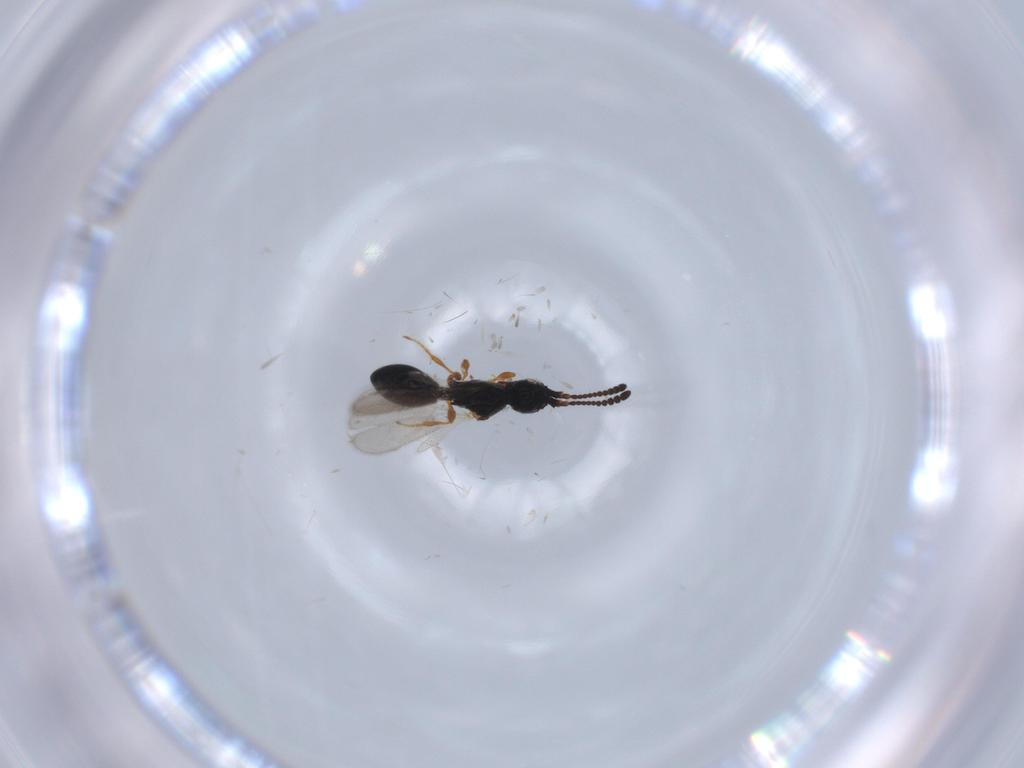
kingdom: Animalia
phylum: Arthropoda
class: Insecta
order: Hymenoptera
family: Diapriidae
